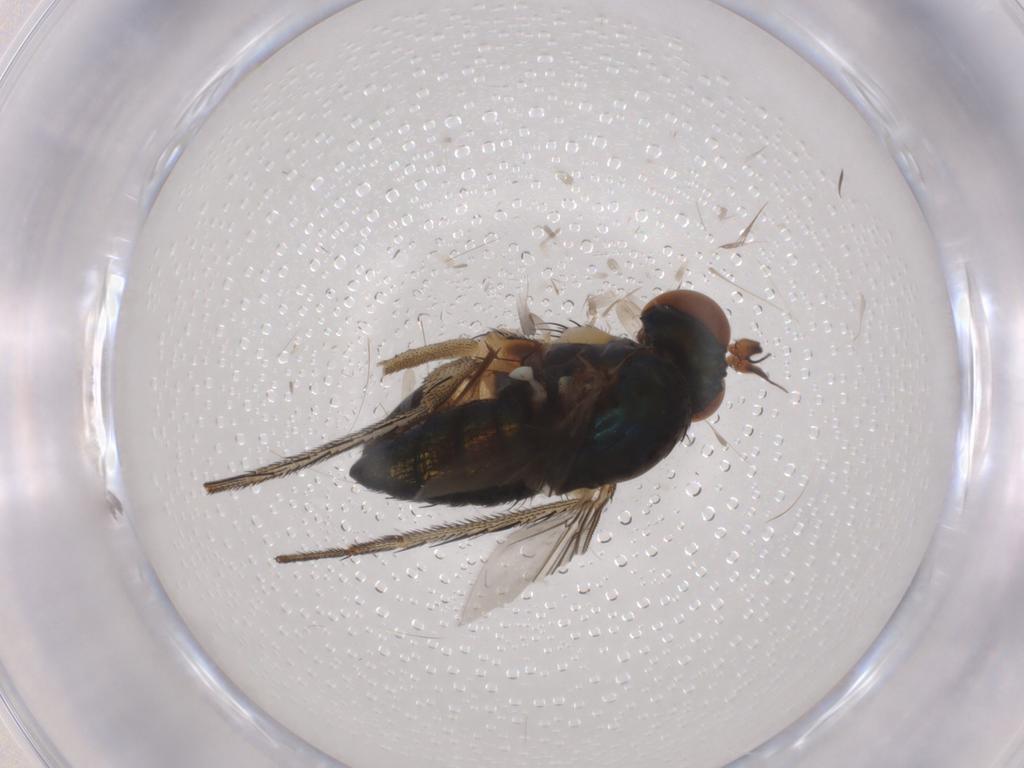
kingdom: Animalia
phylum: Arthropoda
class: Insecta
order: Diptera
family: Dolichopodidae
